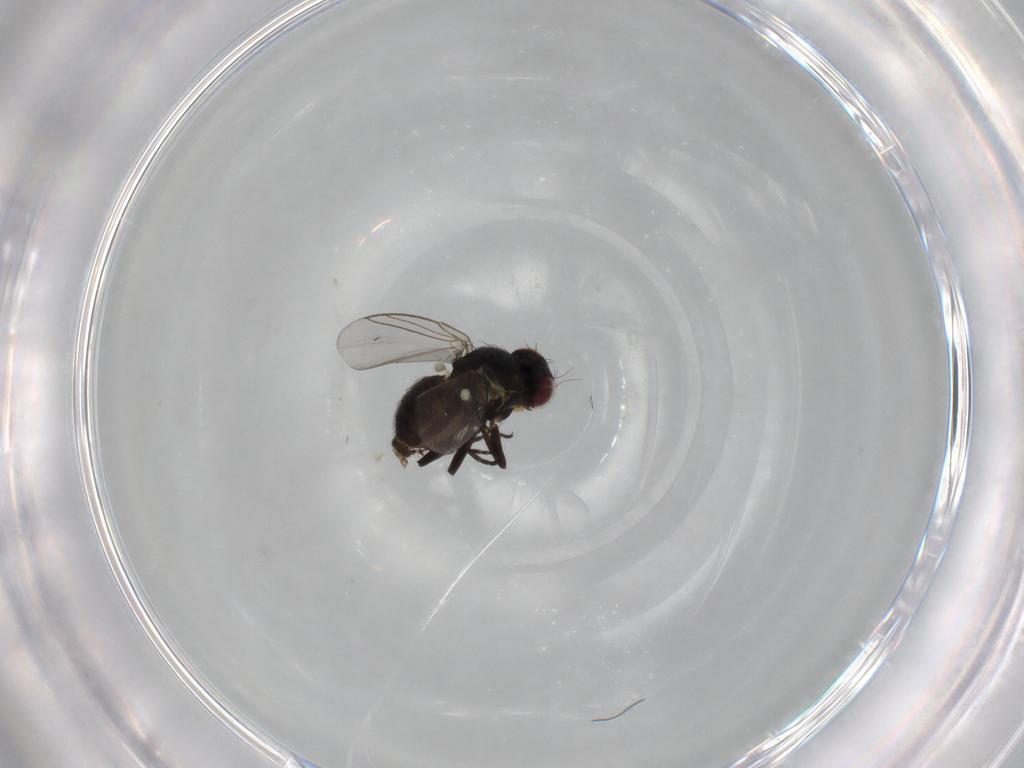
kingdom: Animalia
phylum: Arthropoda
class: Insecta
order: Diptera
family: Muscidae
